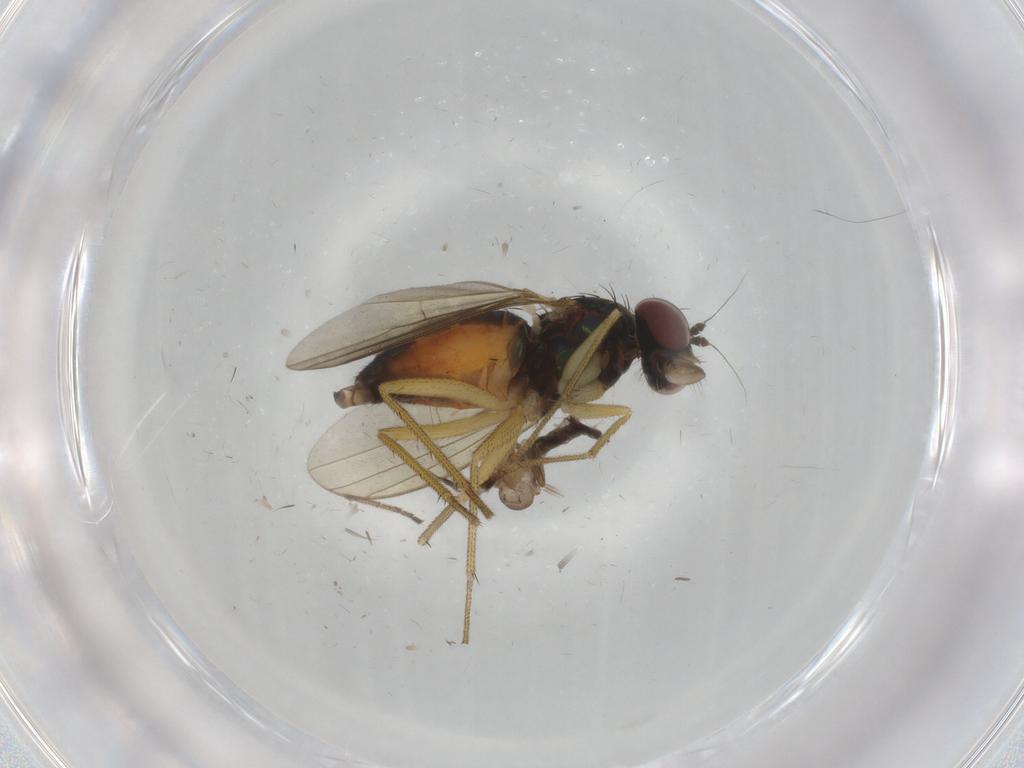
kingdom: Animalia
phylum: Arthropoda
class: Insecta
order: Diptera
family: Dolichopodidae
